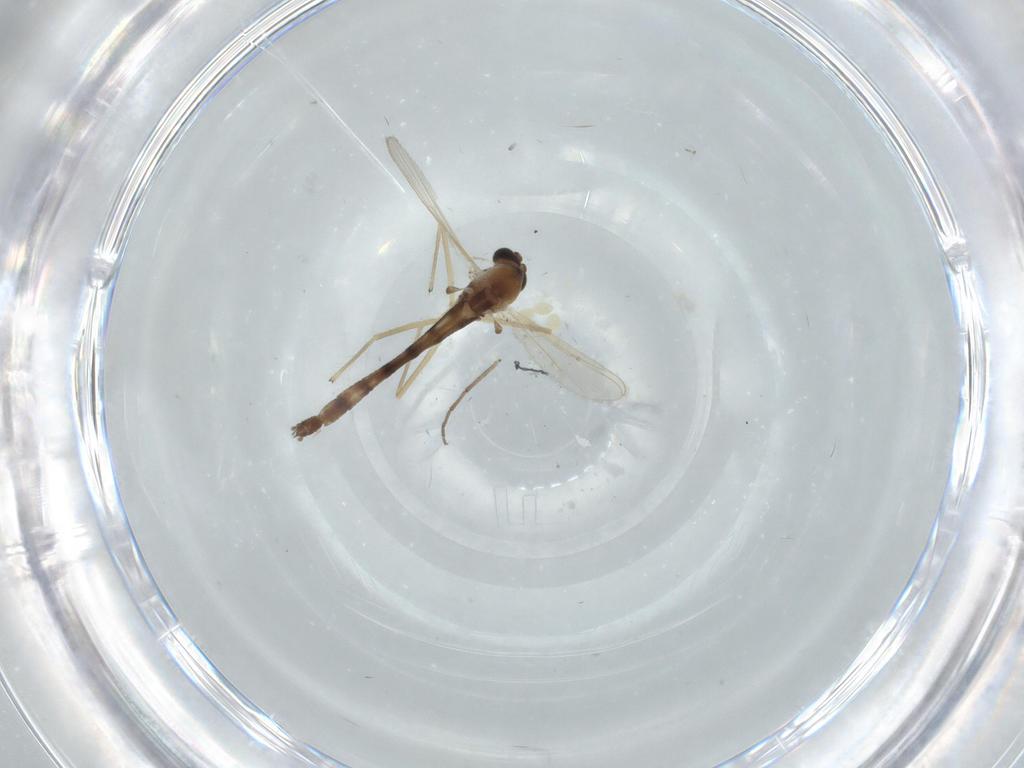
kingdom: Animalia
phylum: Arthropoda
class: Insecta
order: Diptera
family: Chironomidae
